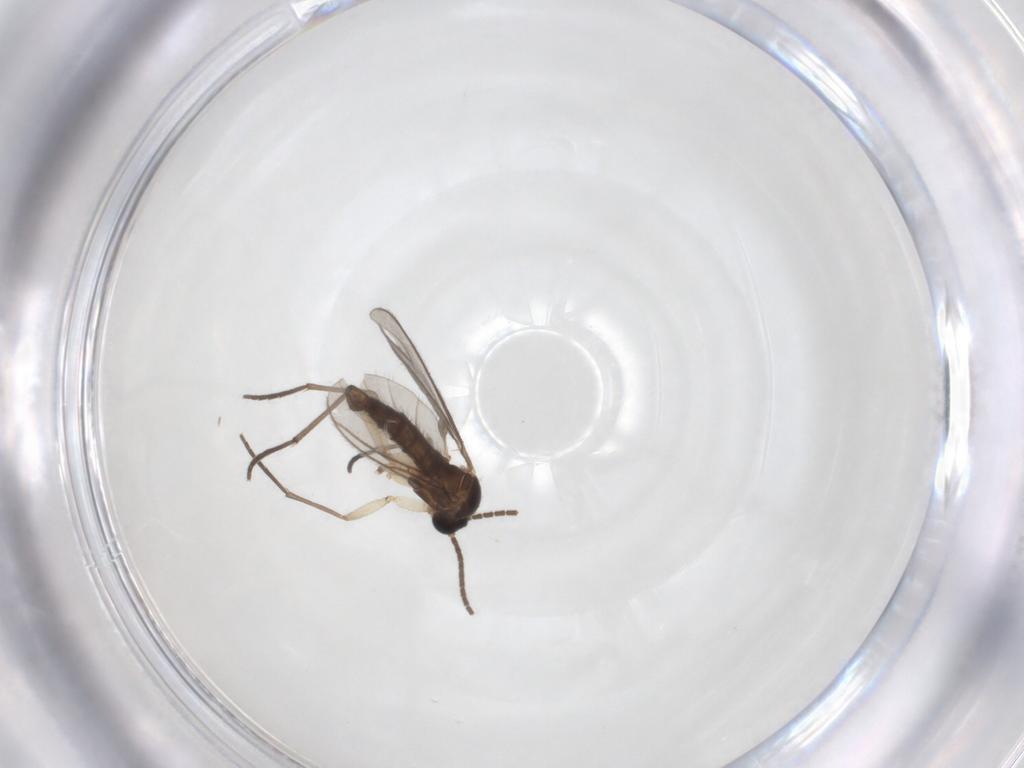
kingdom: Animalia
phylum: Arthropoda
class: Insecta
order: Diptera
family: Sciaridae
